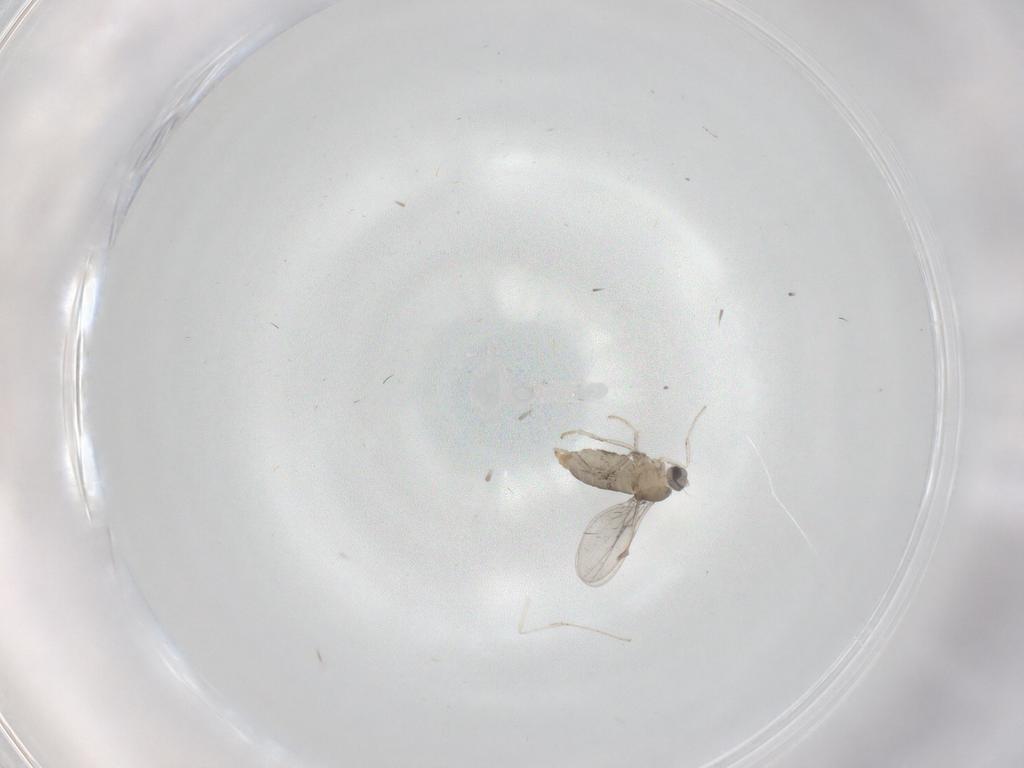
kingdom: Animalia
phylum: Arthropoda
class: Insecta
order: Diptera
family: Cecidomyiidae
